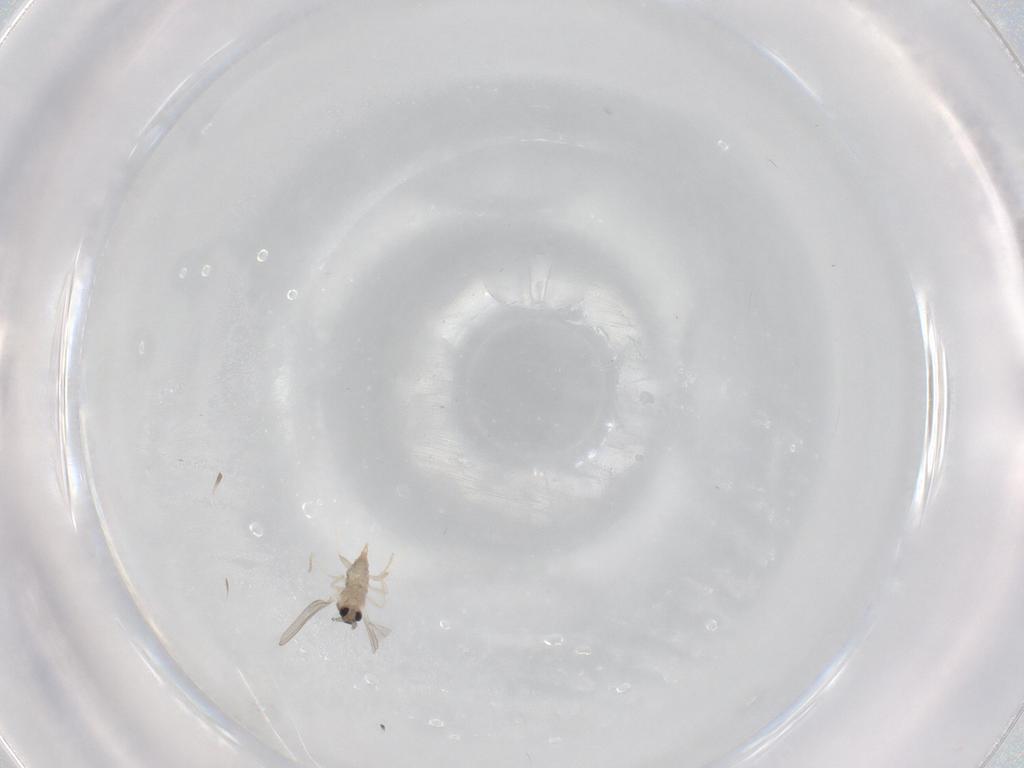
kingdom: Animalia
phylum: Arthropoda
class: Insecta
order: Diptera
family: Cecidomyiidae
